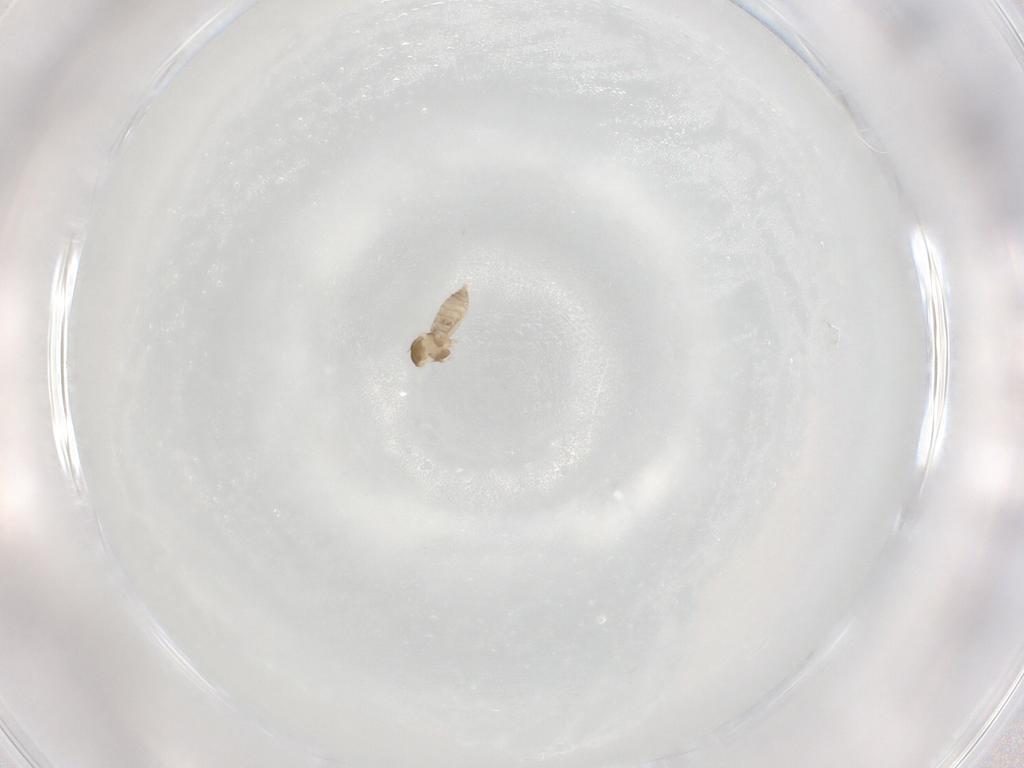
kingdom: Animalia
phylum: Arthropoda
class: Insecta
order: Diptera
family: Cecidomyiidae
